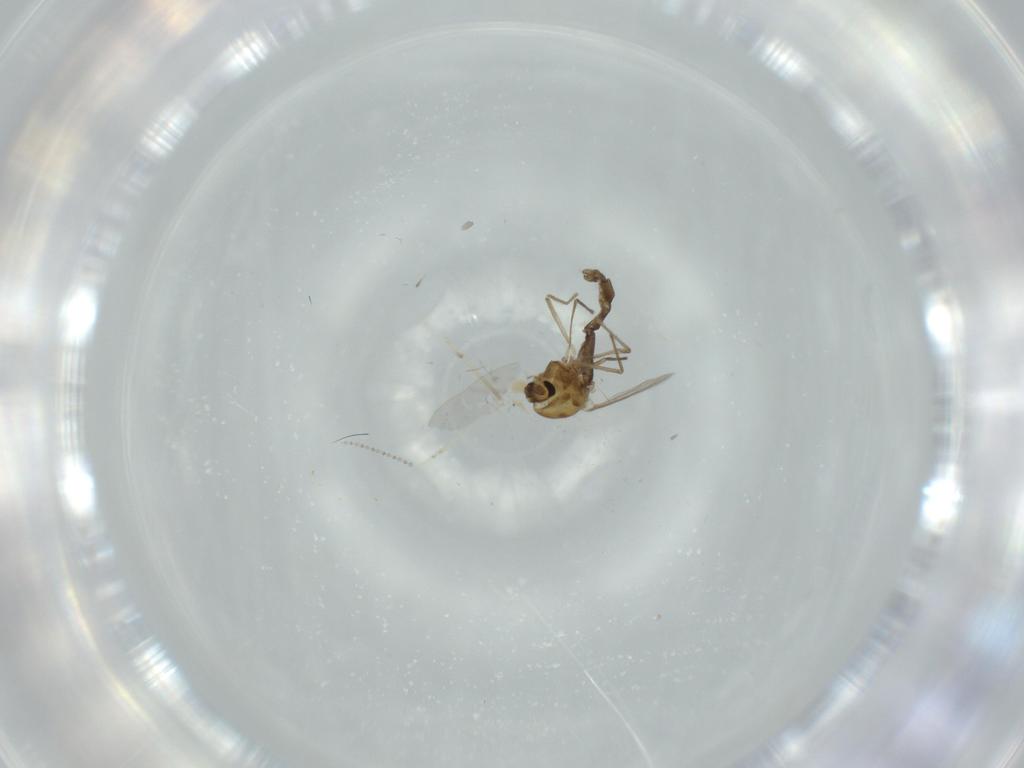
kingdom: Animalia
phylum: Arthropoda
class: Insecta
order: Diptera
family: Chironomidae
